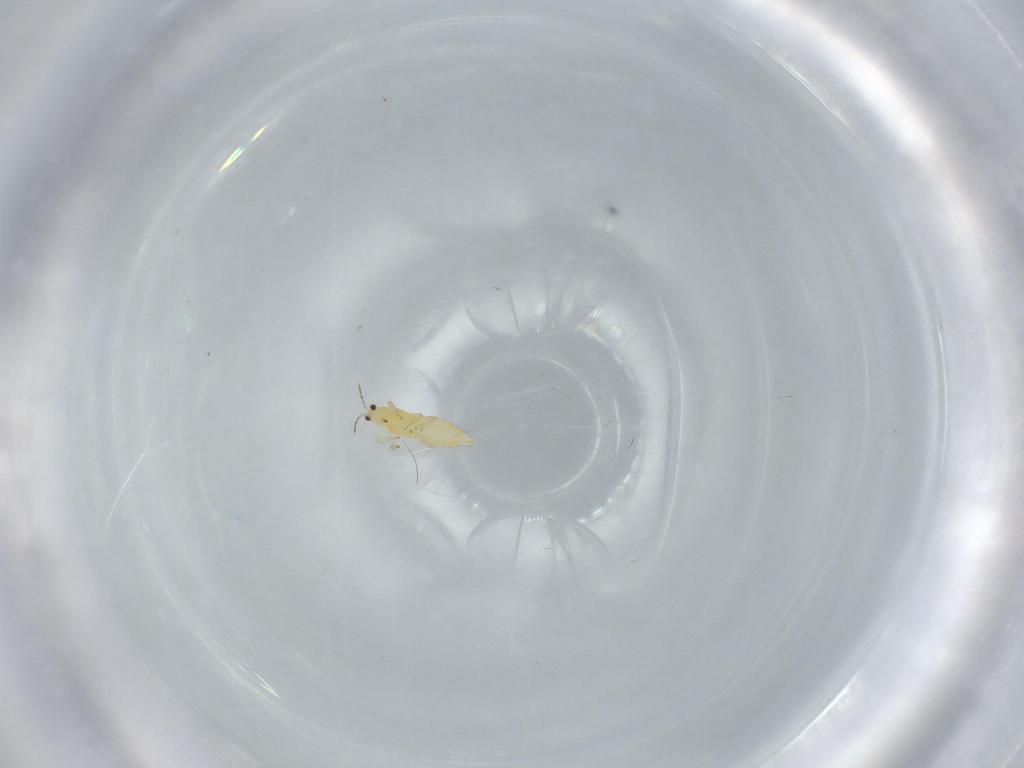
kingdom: Animalia
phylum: Arthropoda
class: Insecta
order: Thysanoptera
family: Thripidae
